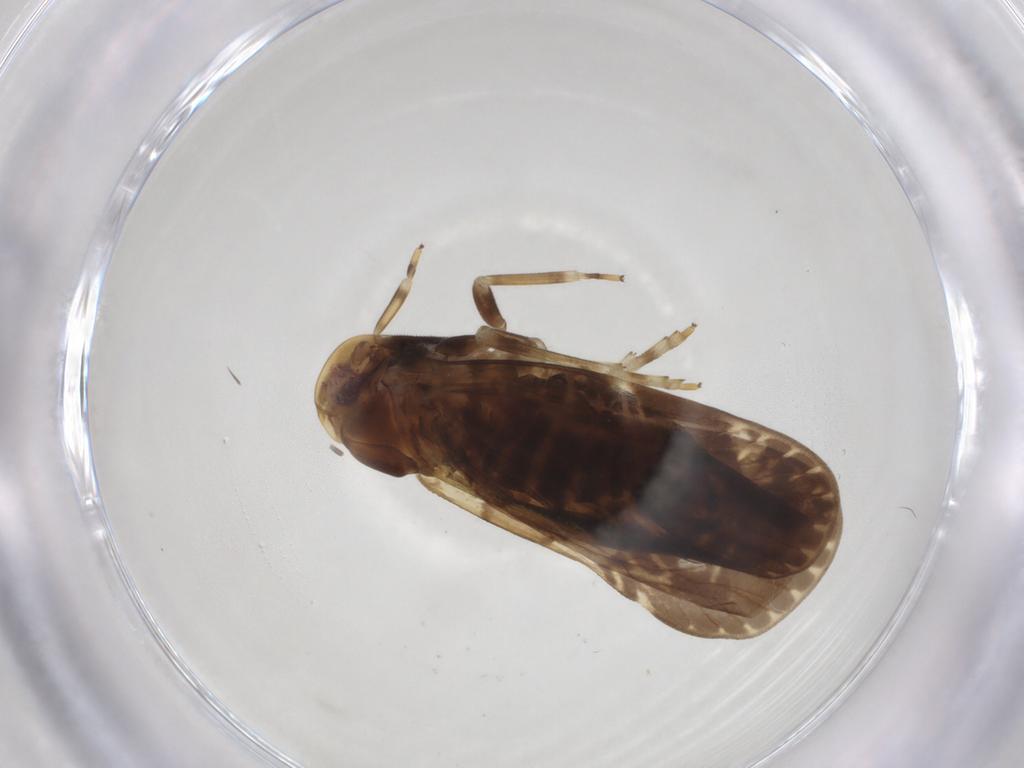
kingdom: Animalia
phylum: Arthropoda
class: Insecta
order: Hemiptera
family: Cixiidae
